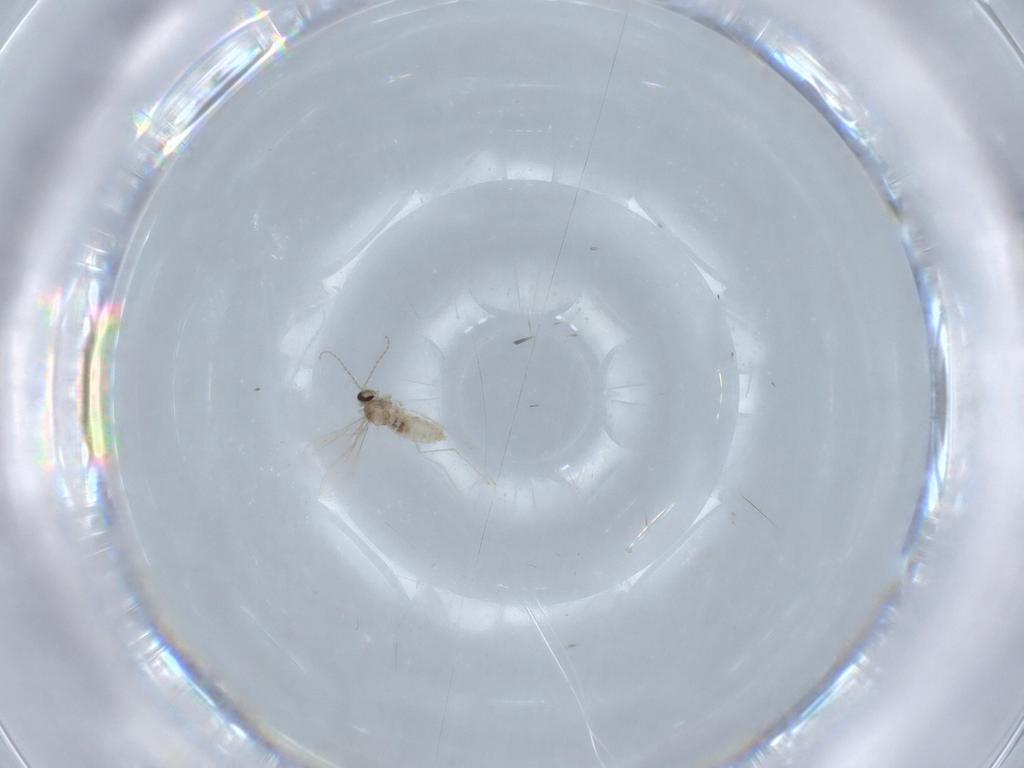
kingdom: Animalia
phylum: Arthropoda
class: Insecta
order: Diptera
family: Cecidomyiidae
